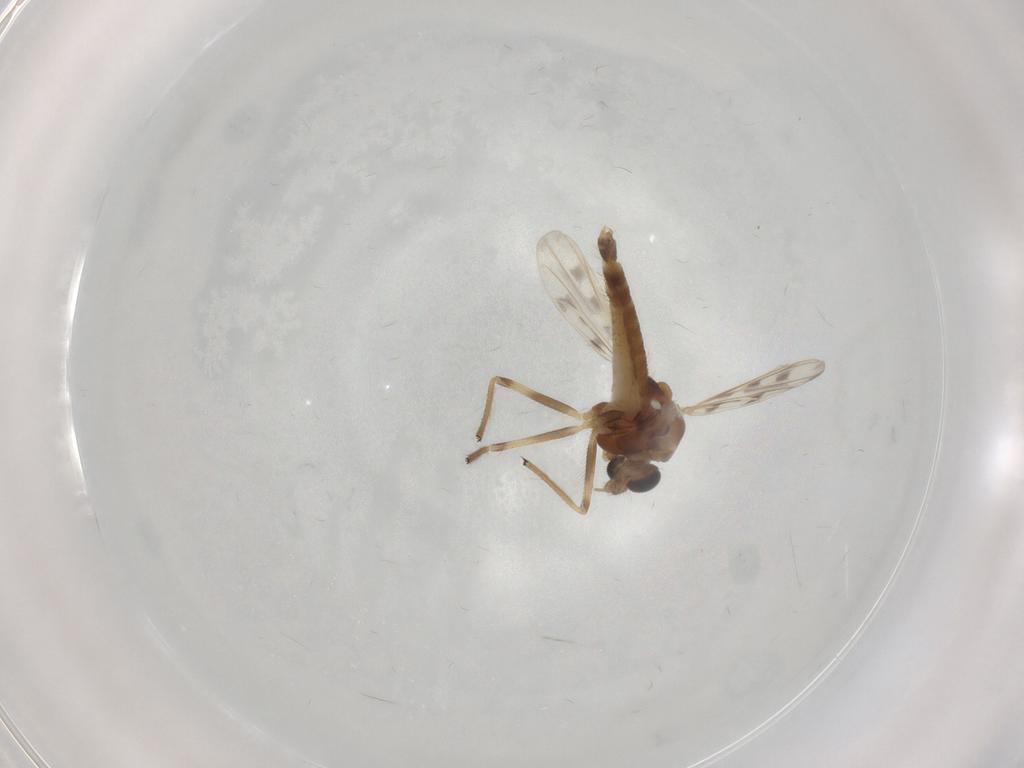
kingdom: Animalia
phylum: Arthropoda
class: Insecta
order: Diptera
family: Chironomidae
